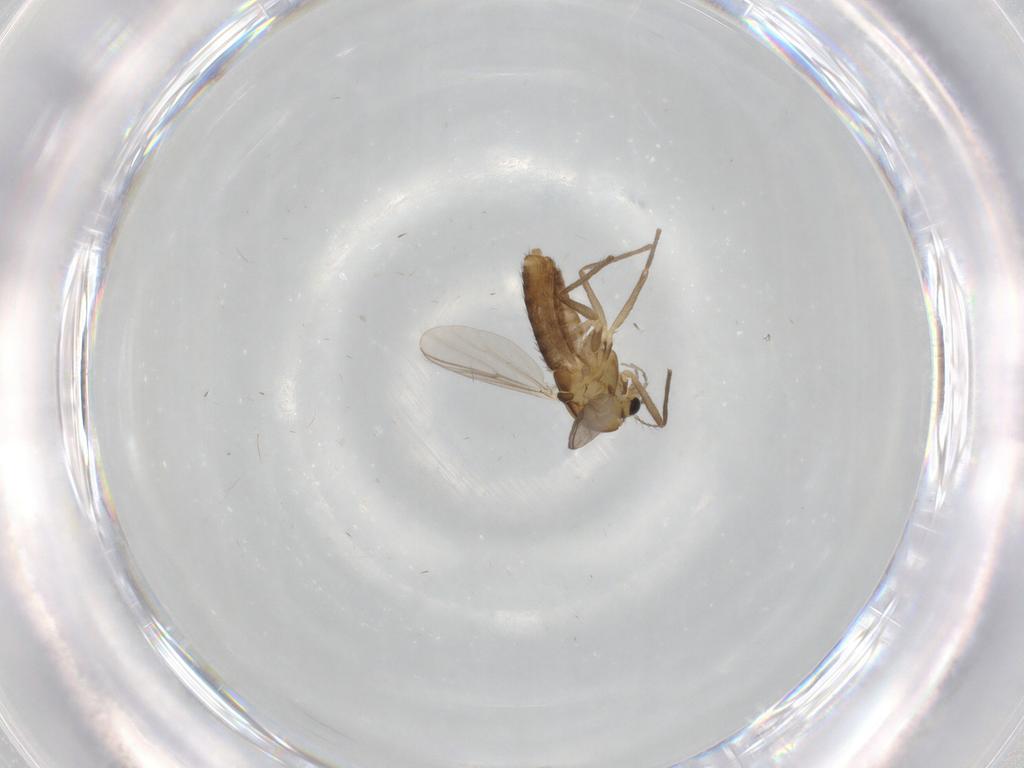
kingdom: Animalia
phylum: Arthropoda
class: Insecta
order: Diptera
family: Chironomidae
